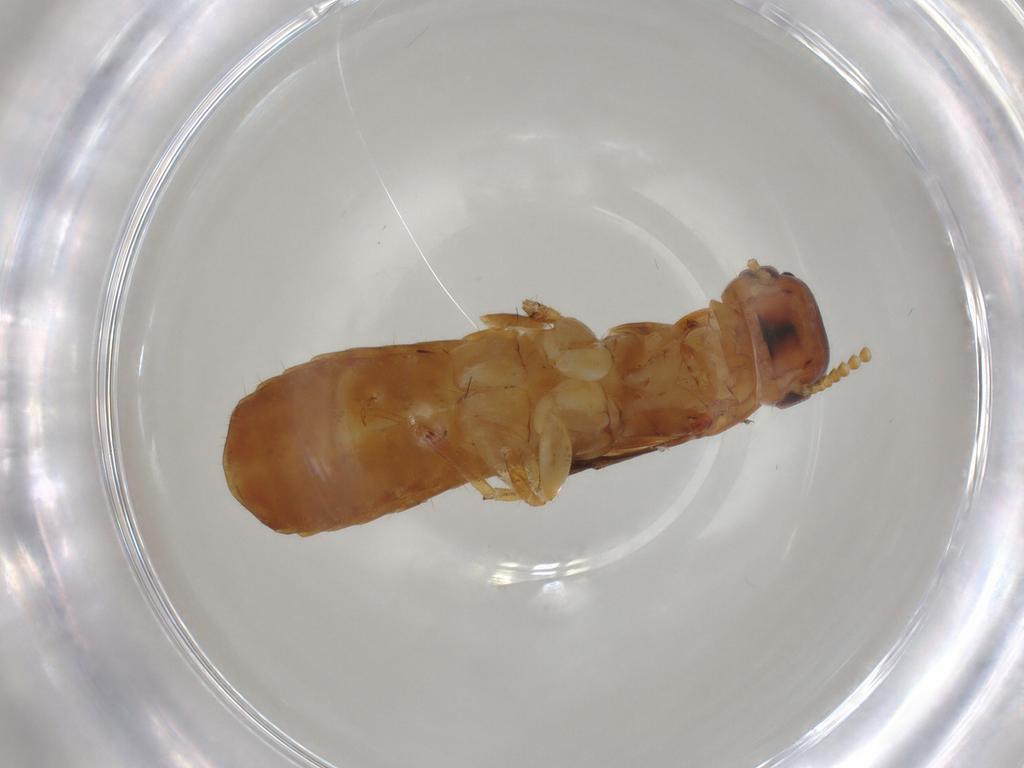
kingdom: Animalia
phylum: Arthropoda
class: Insecta
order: Blattodea
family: Kalotermitidae
